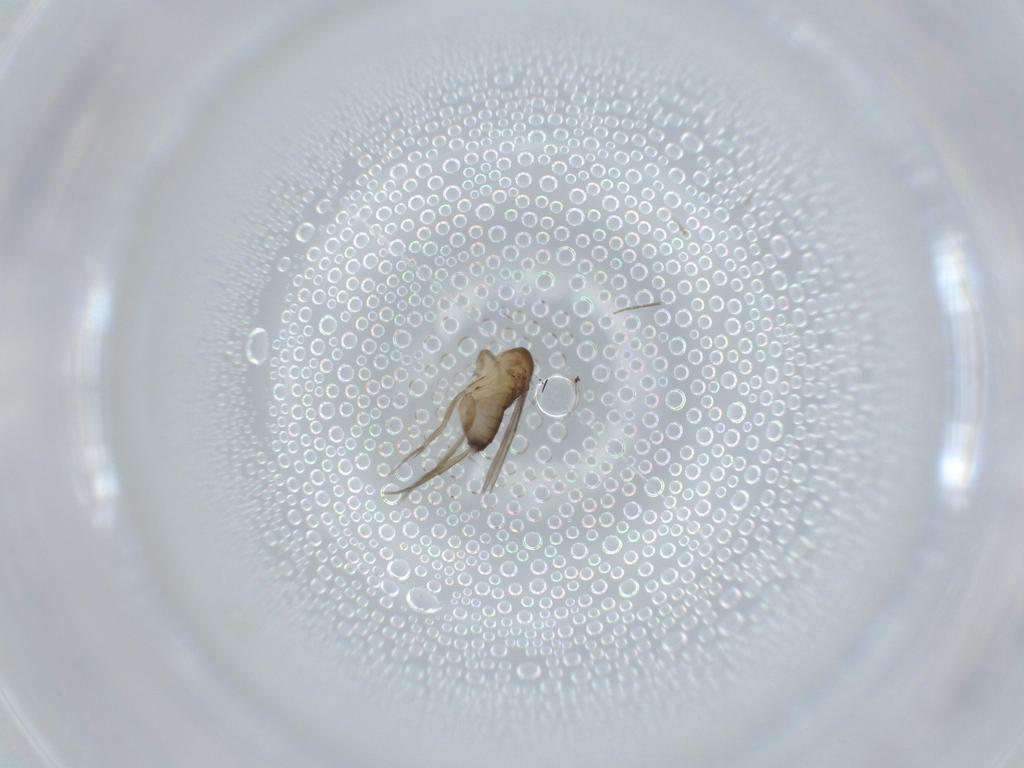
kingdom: Animalia
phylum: Arthropoda
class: Insecta
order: Diptera
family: Phoridae
